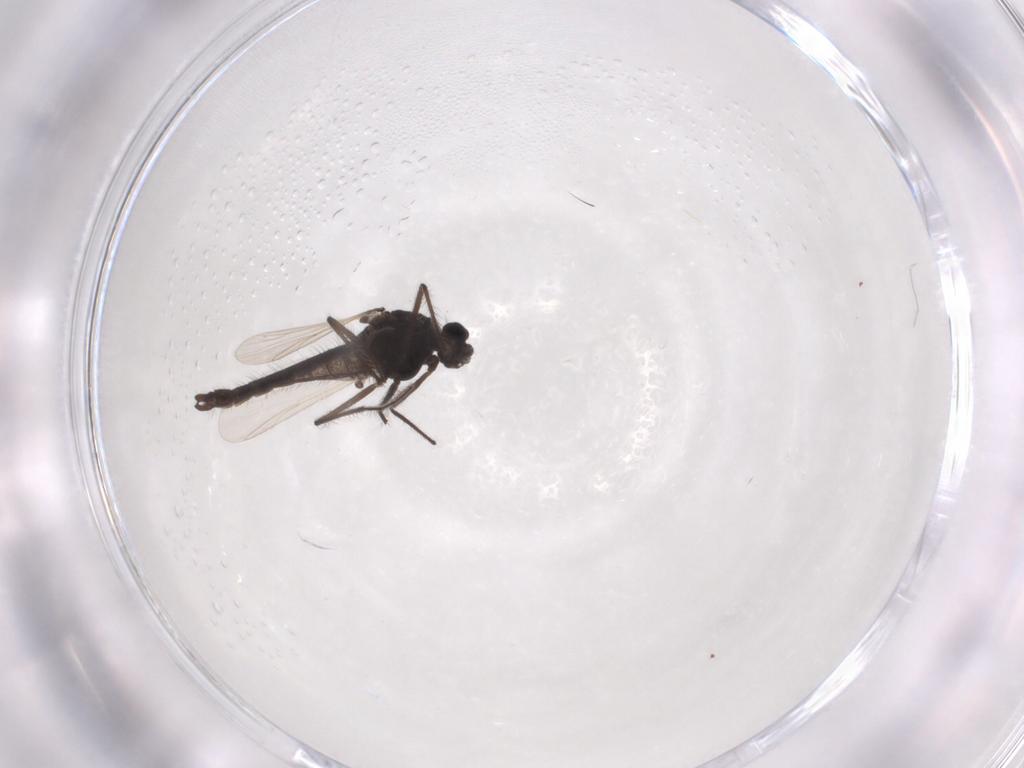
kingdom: Animalia
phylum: Arthropoda
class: Insecta
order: Diptera
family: Chironomidae
